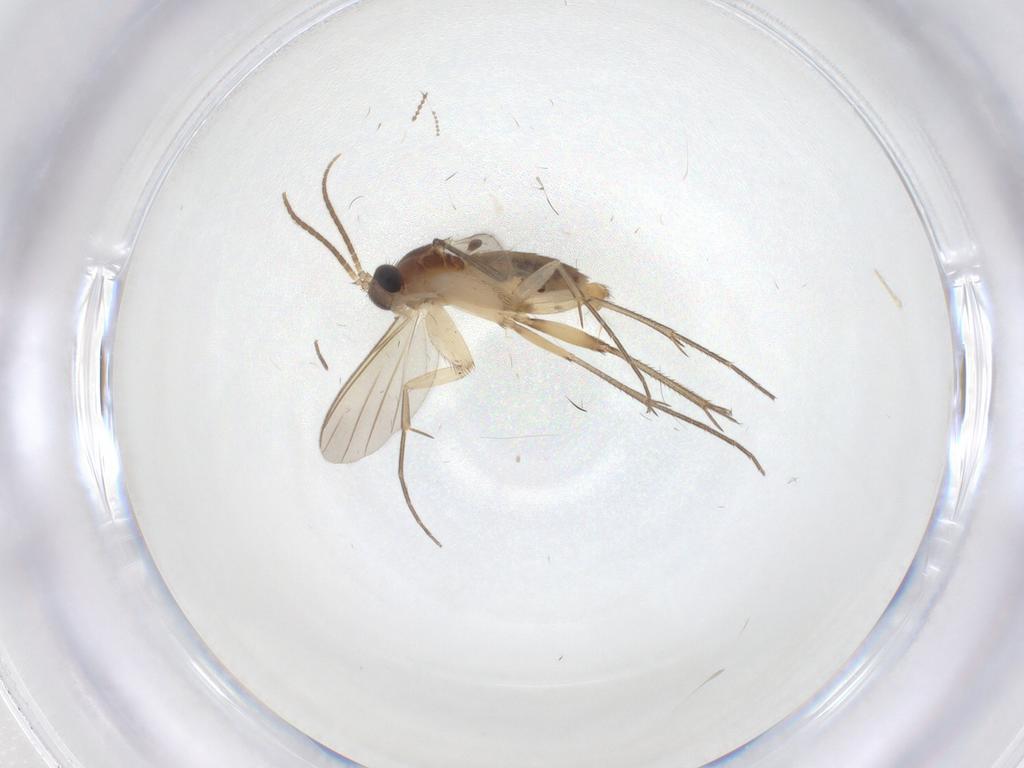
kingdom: Animalia
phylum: Arthropoda
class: Insecta
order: Diptera
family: Mycetophilidae
